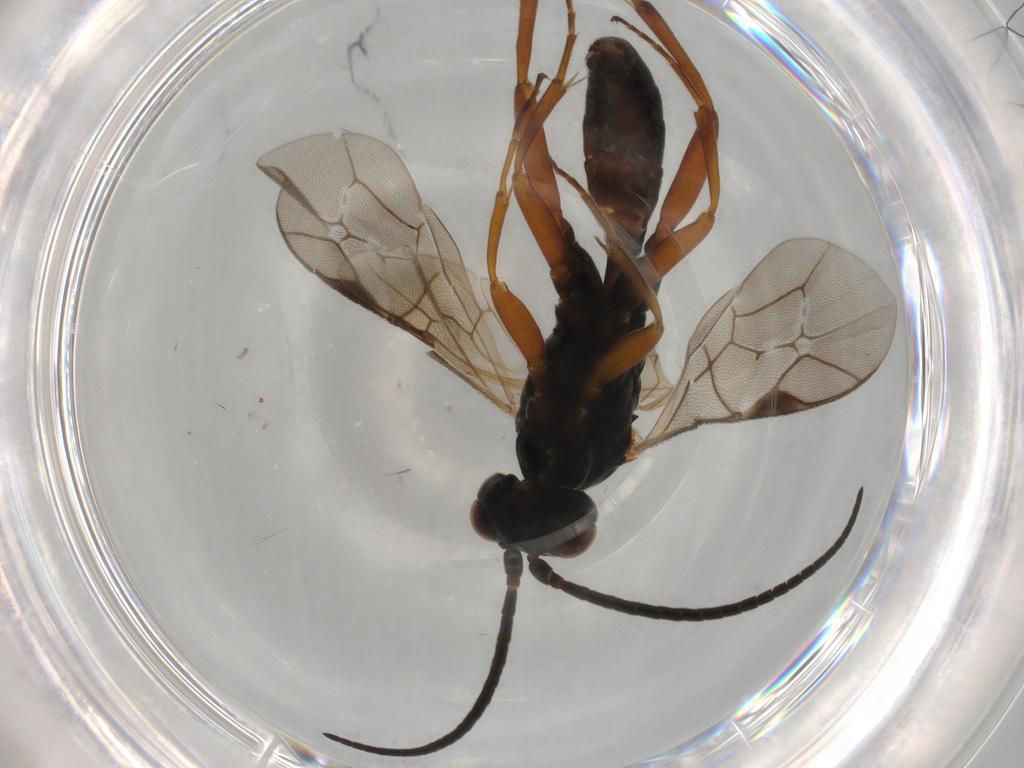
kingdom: Animalia
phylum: Arthropoda
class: Insecta
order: Hymenoptera
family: Ichneumonidae
